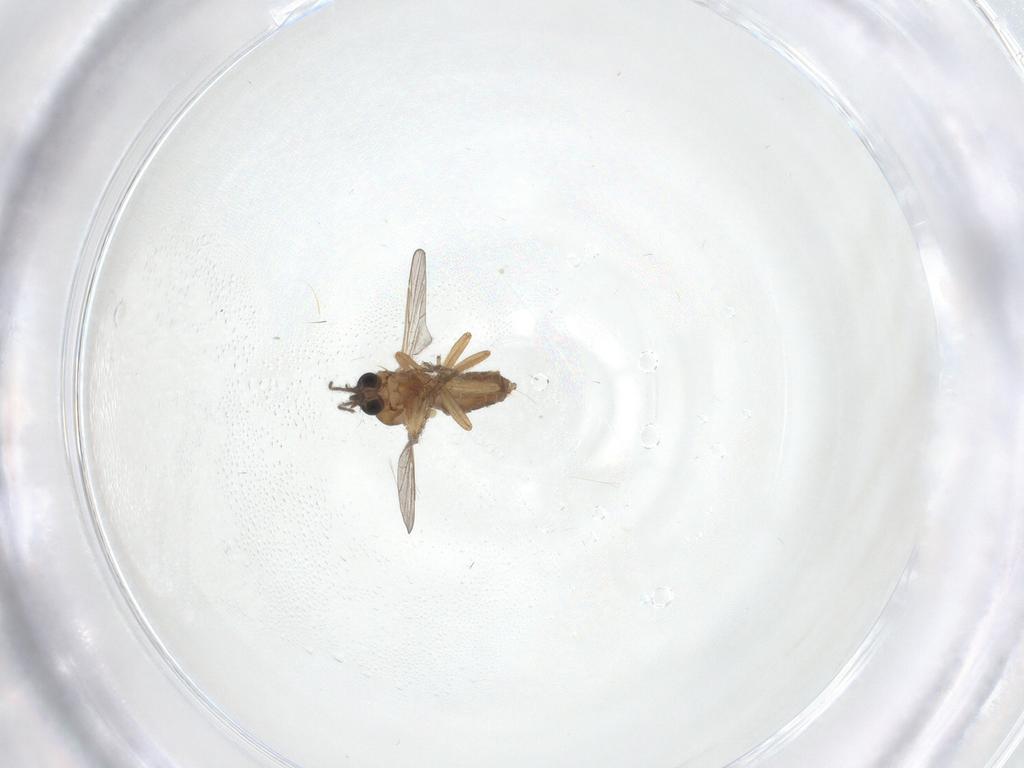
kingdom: Animalia
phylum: Arthropoda
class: Insecta
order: Diptera
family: Ceratopogonidae
